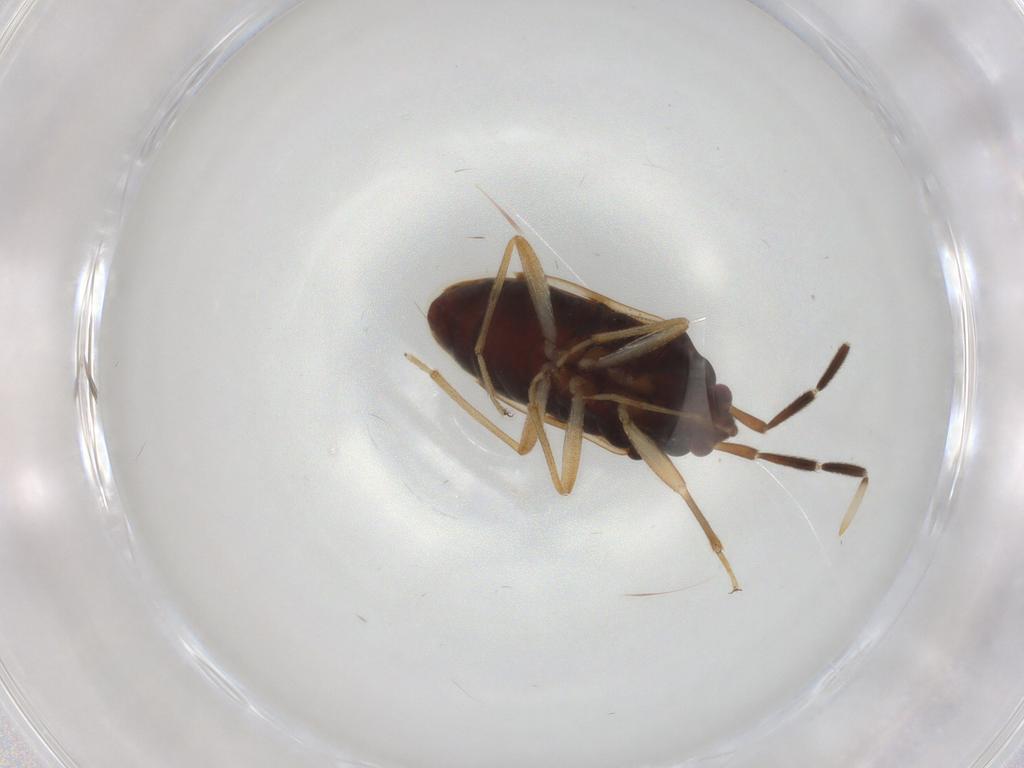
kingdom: Animalia
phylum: Arthropoda
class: Insecta
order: Hemiptera
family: Rhyparochromidae
